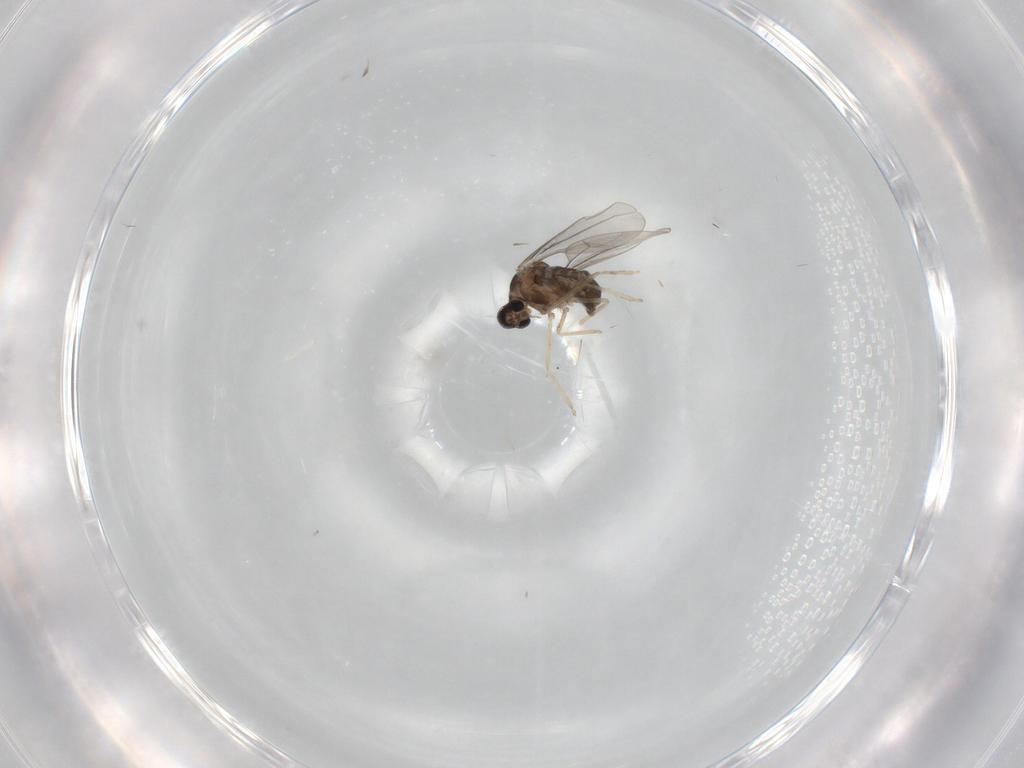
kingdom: Animalia
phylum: Arthropoda
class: Insecta
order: Diptera
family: Cecidomyiidae
